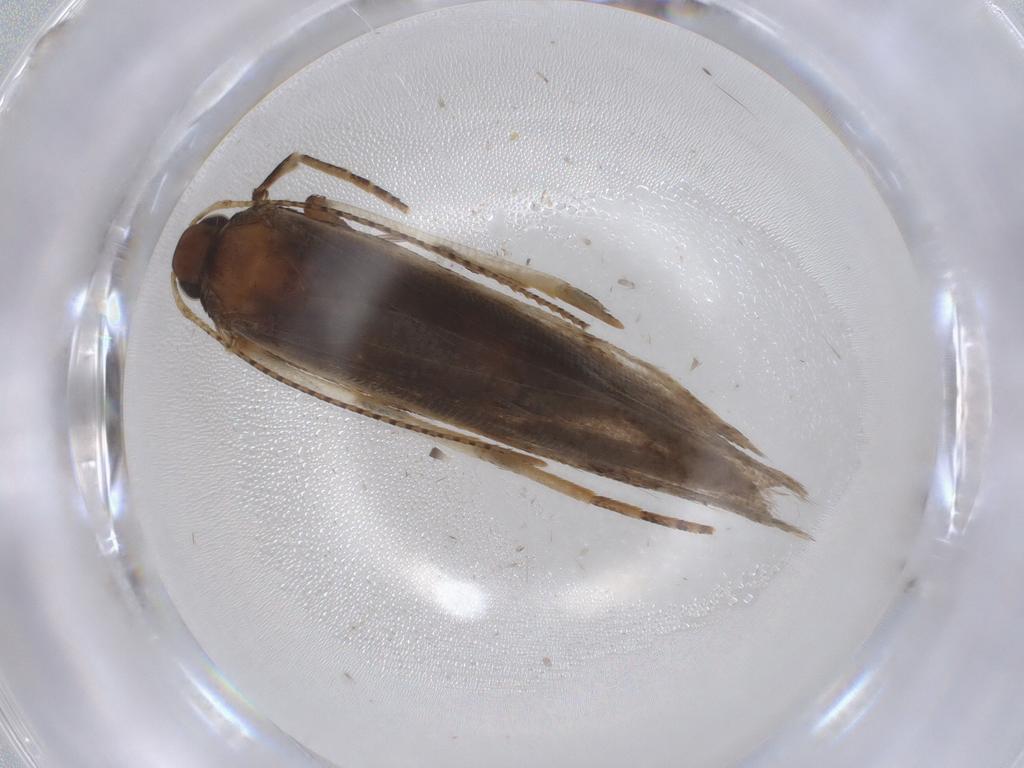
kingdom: Animalia
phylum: Arthropoda
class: Insecta
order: Lepidoptera
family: Gelechiidae
